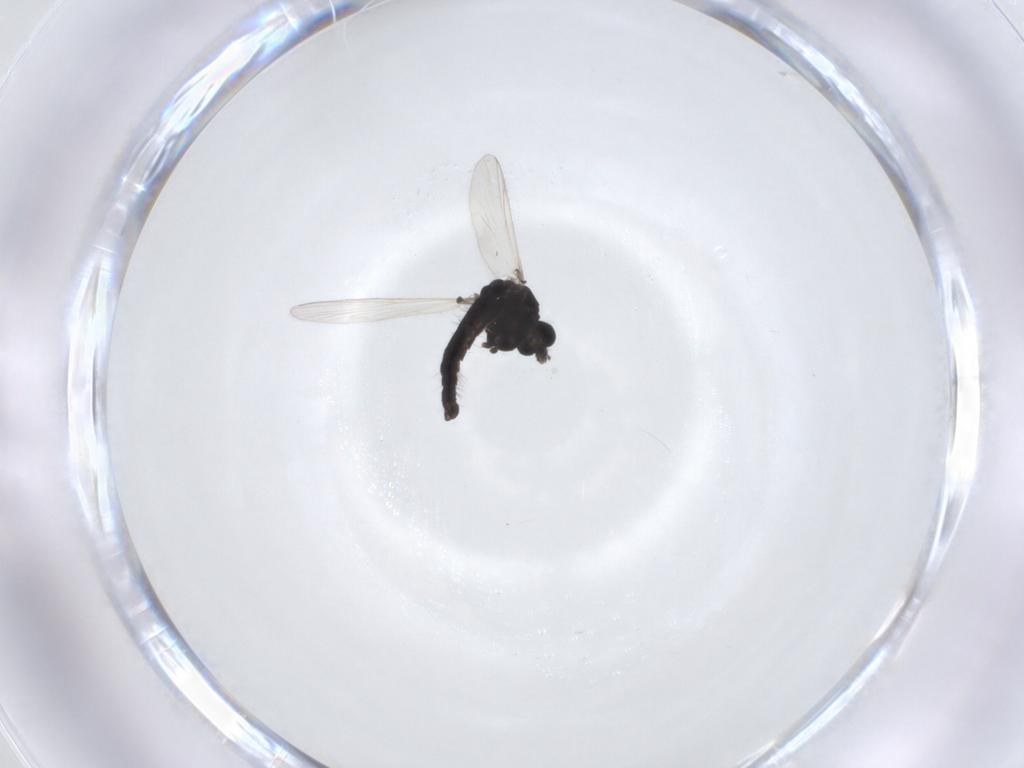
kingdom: Animalia
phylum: Arthropoda
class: Insecta
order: Diptera
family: Chironomidae
